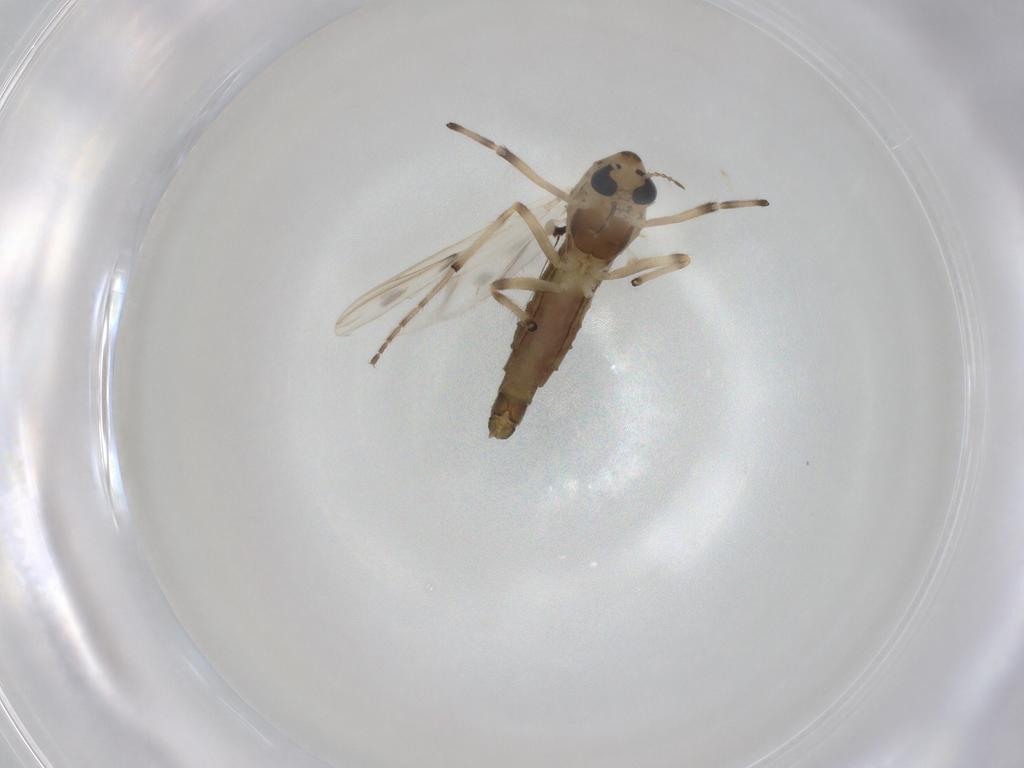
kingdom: Animalia
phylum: Arthropoda
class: Insecta
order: Diptera
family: Chironomidae
